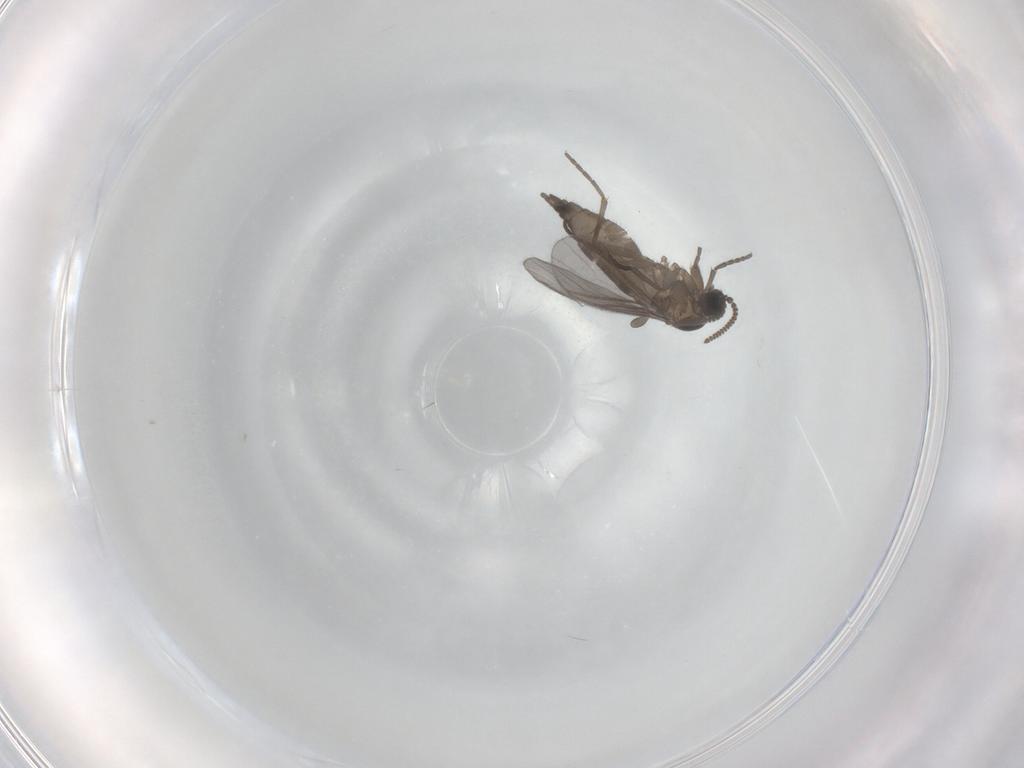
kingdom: Animalia
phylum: Arthropoda
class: Insecta
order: Diptera
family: Sciaridae
